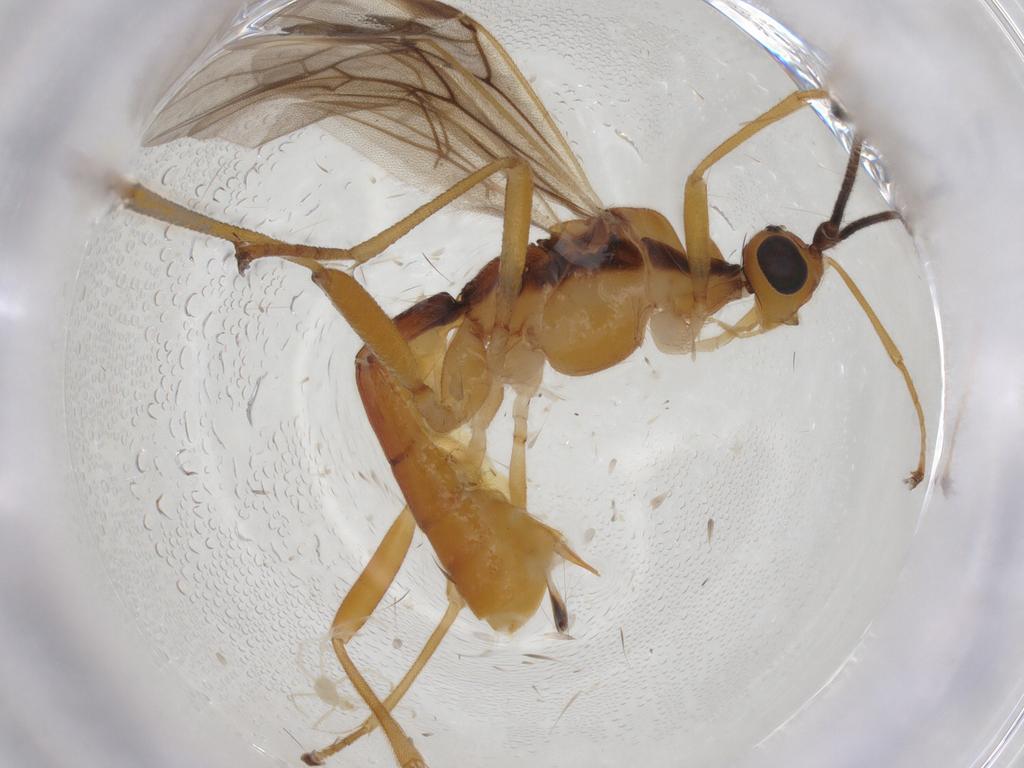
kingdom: Animalia
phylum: Arthropoda
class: Insecta
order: Hymenoptera
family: Braconidae
